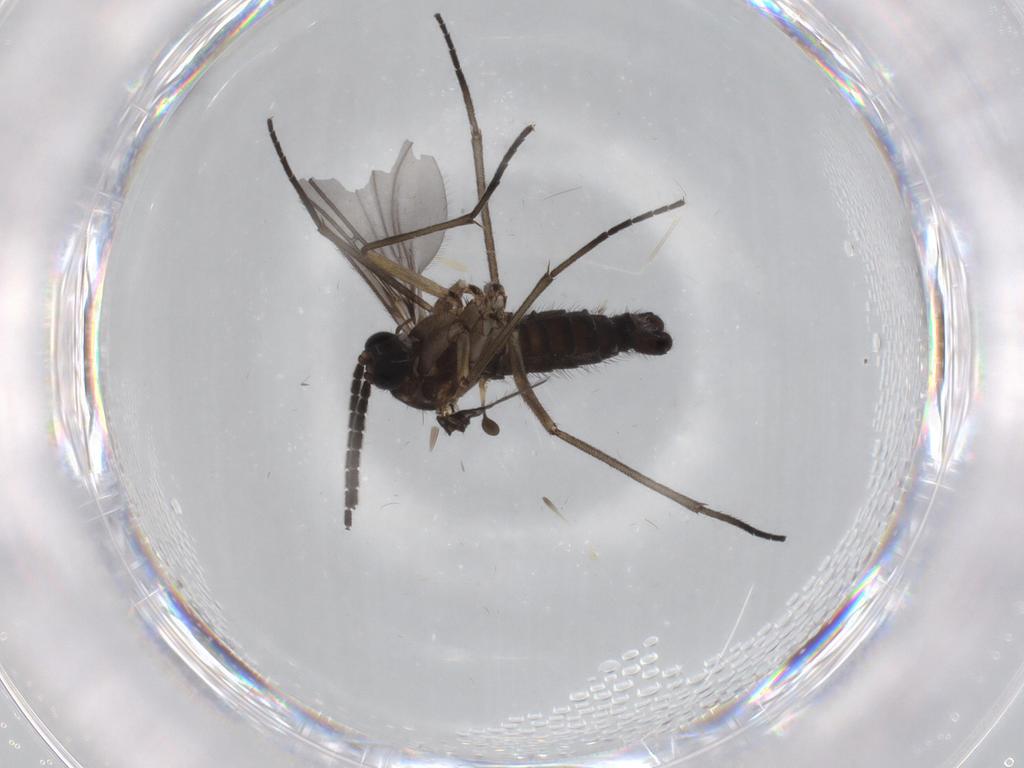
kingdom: Animalia
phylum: Arthropoda
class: Insecta
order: Diptera
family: Sciaridae
